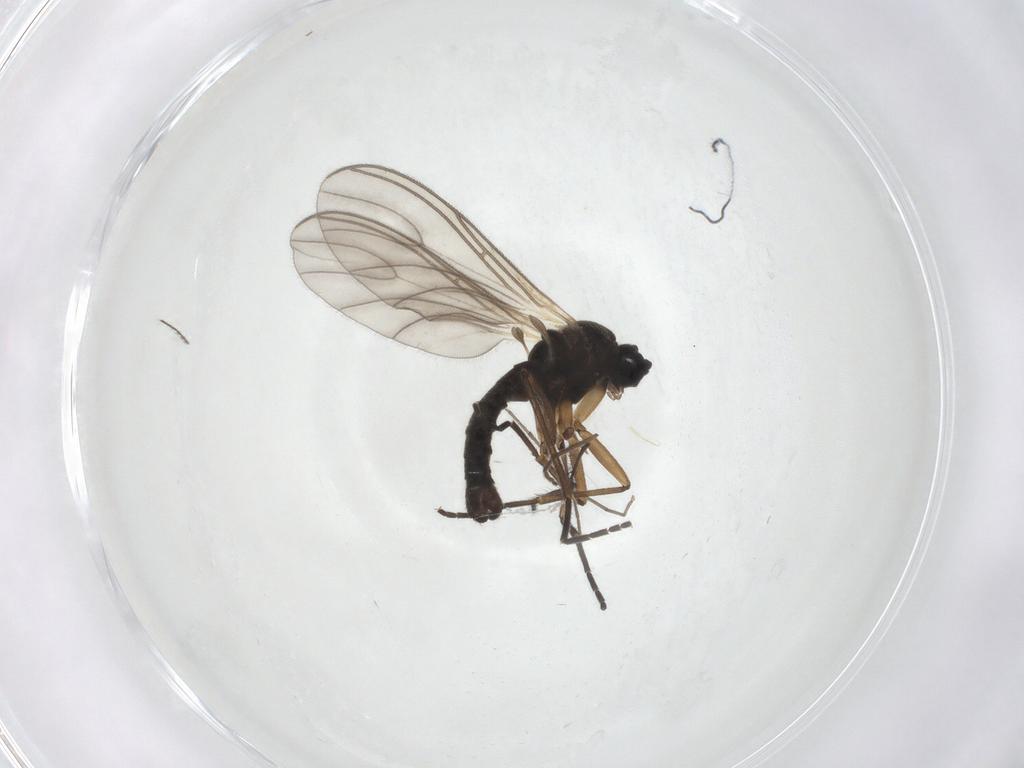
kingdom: Animalia
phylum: Arthropoda
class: Insecta
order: Diptera
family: Sciaridae
